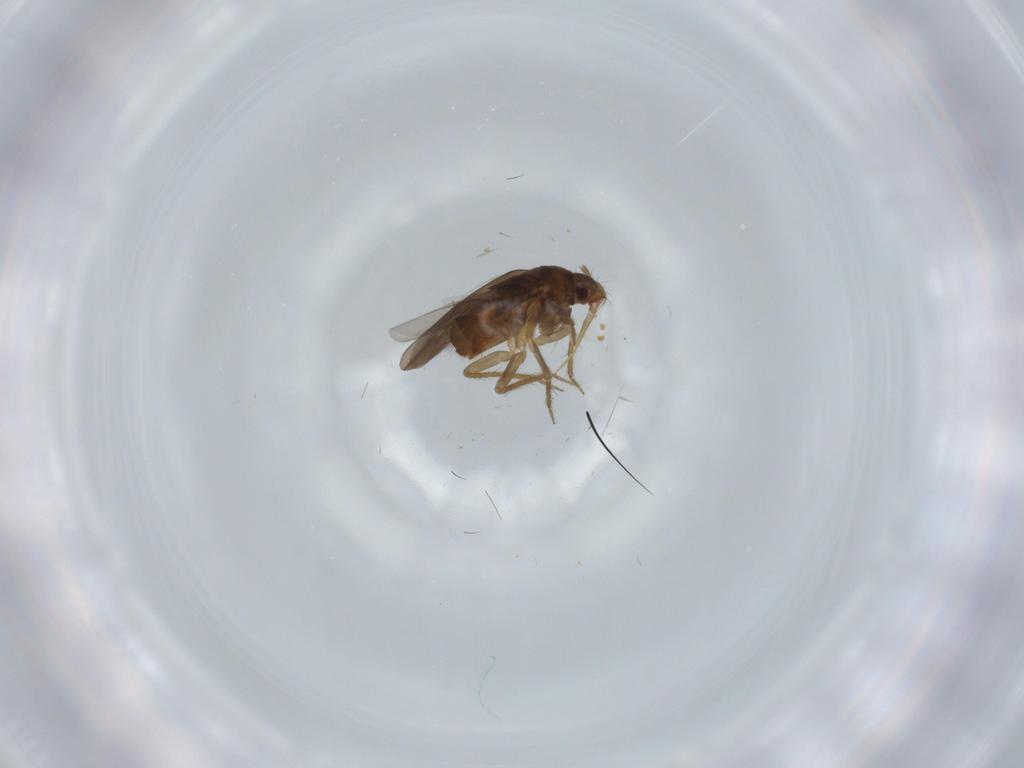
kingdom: Animalia
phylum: Arthropoda
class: Insecta
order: Hemiptera
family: Ceratocombidae
